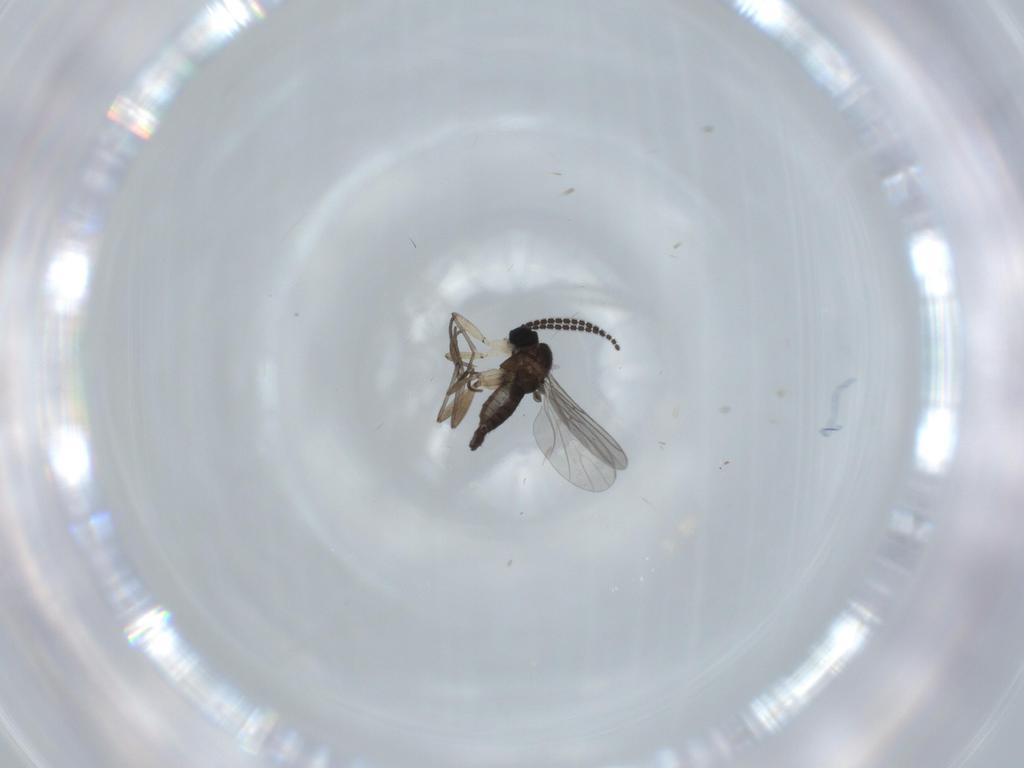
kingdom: Animalia
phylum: Arthropoda
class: Insecta
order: Diptera
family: Sciaridae
